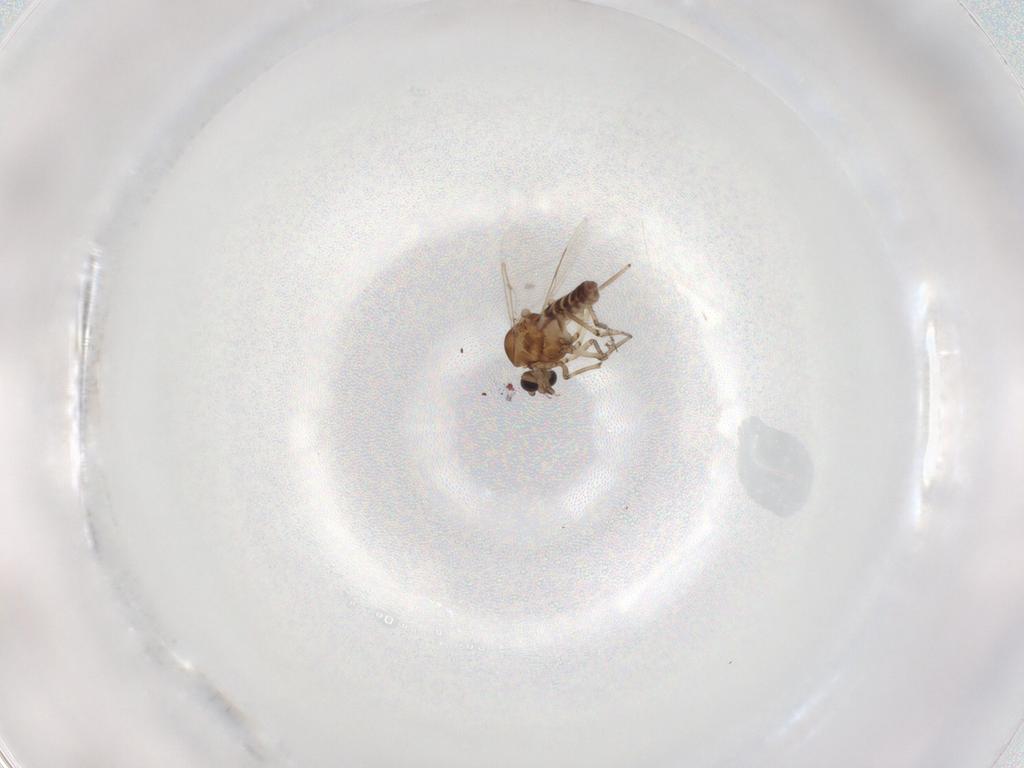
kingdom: Animalia
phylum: Arthropoda
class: Insecta
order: Diptera
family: Ceratopogonidae
